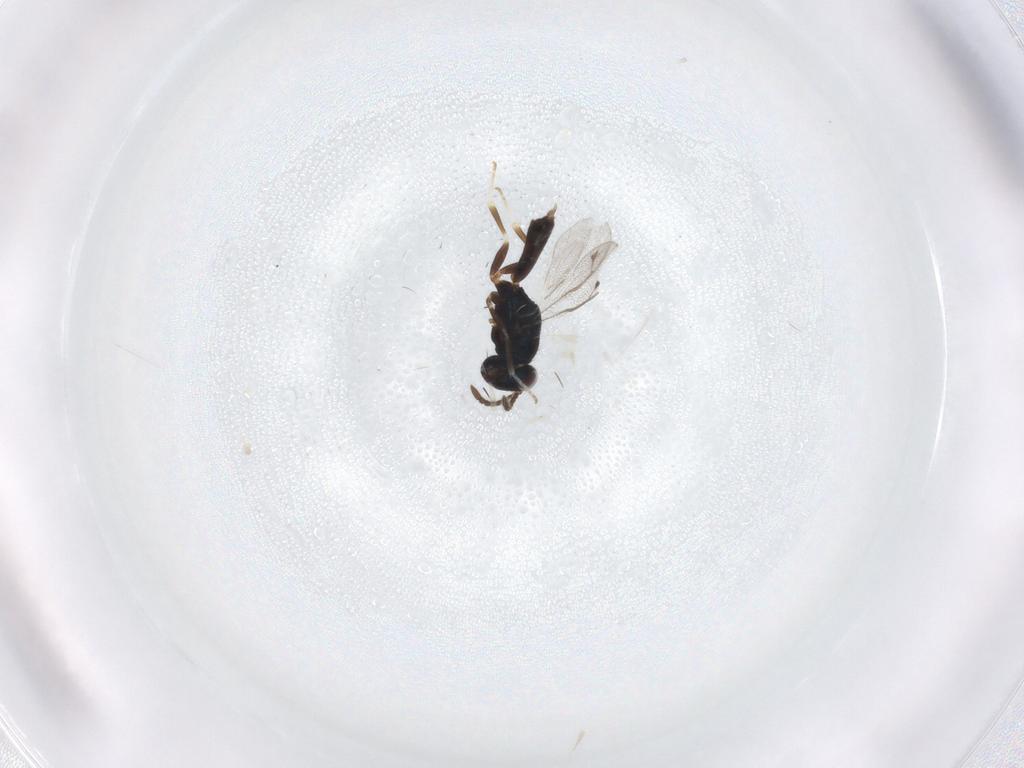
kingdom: Animalia
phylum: Arthropoda
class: Insecta
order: Hymenoptera
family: Pteromalidae
